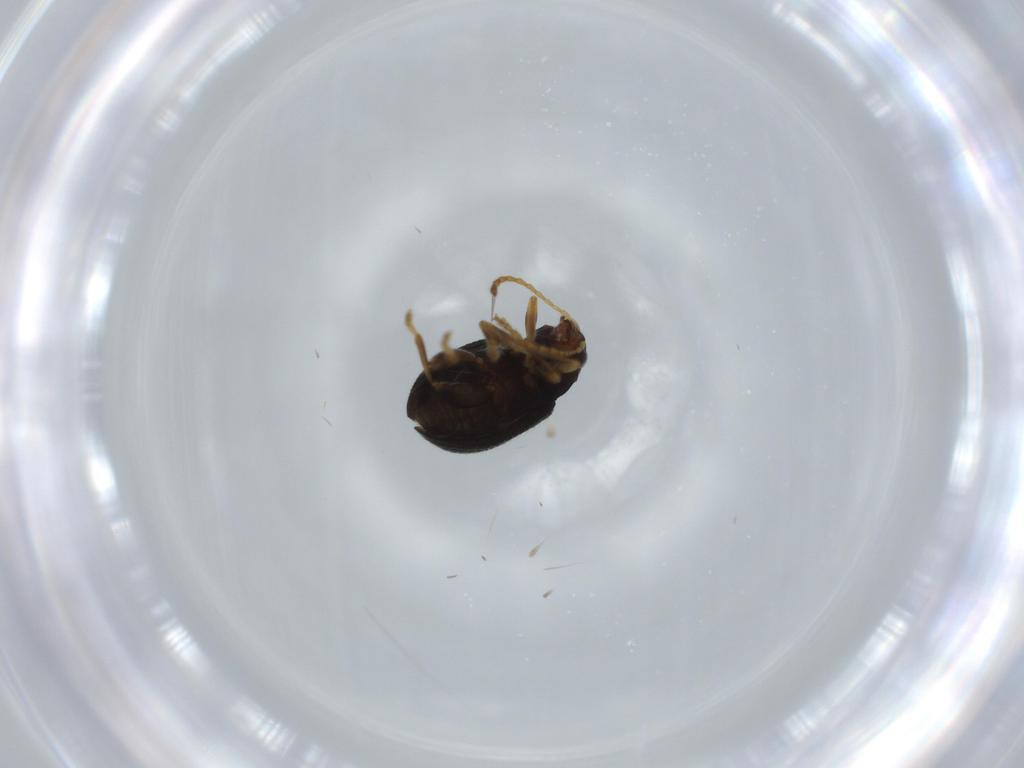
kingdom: Animalia
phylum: Arthropoda
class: Insecta
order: Coleoptera
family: Chrysomelidae
